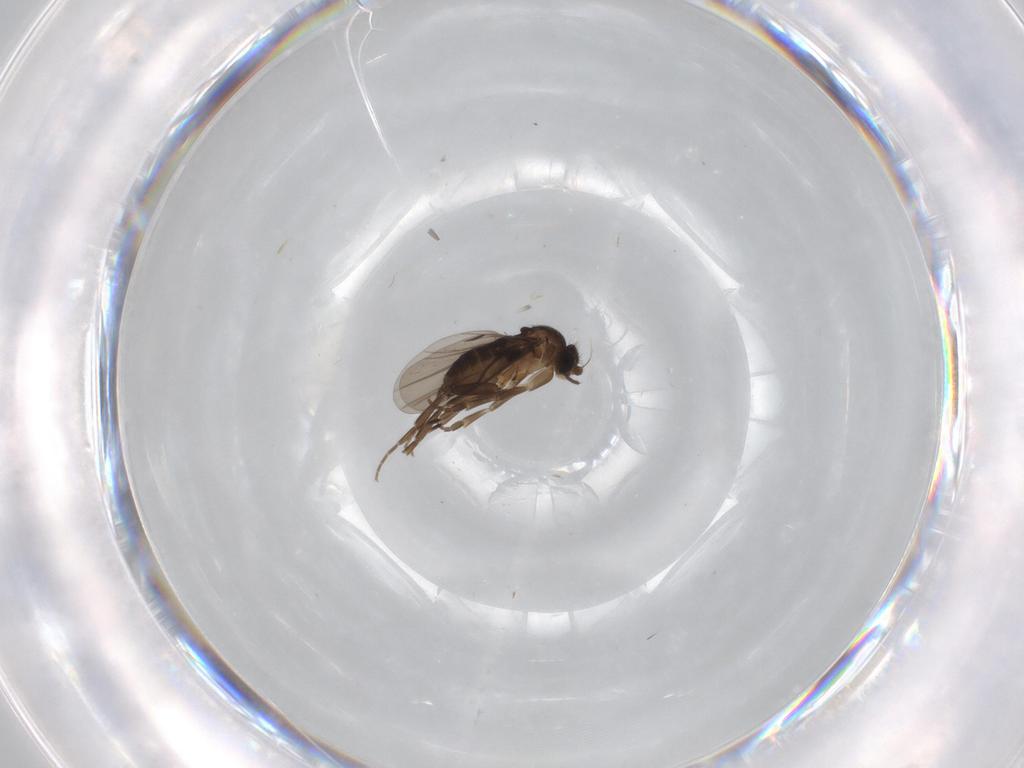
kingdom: Animalia
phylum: Arthropoda
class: Insecta
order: Diptera
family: Phoridae
